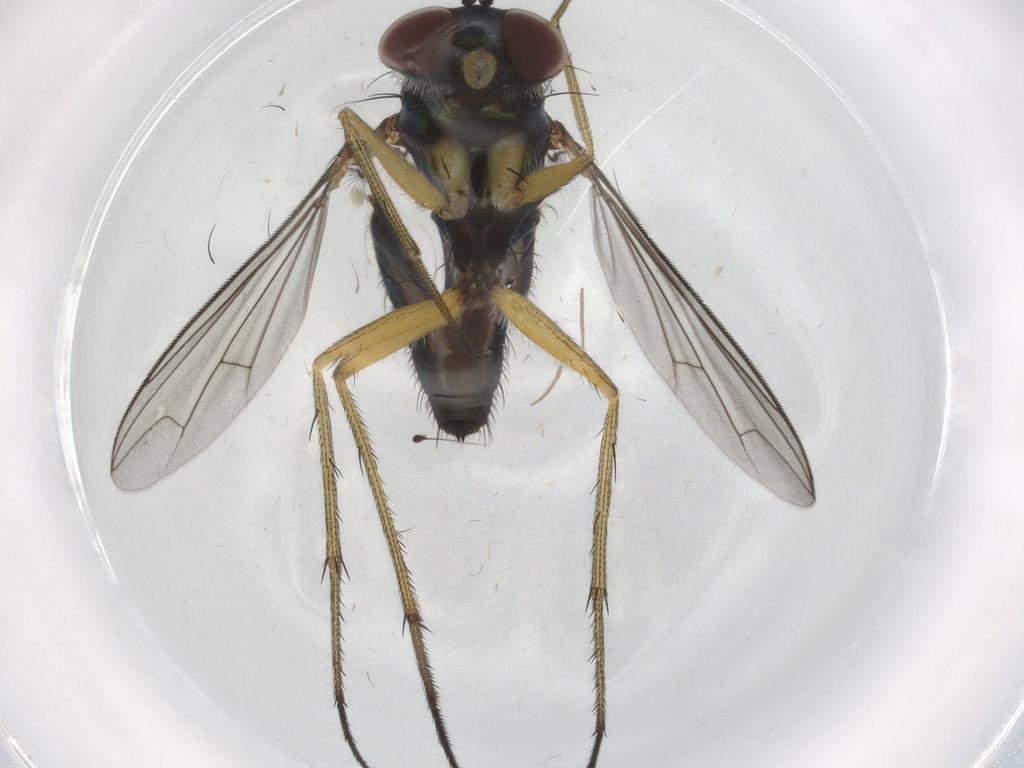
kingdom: Animalia
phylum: Arthropoda
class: Insecta
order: Diptera
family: Dolichopodidae
